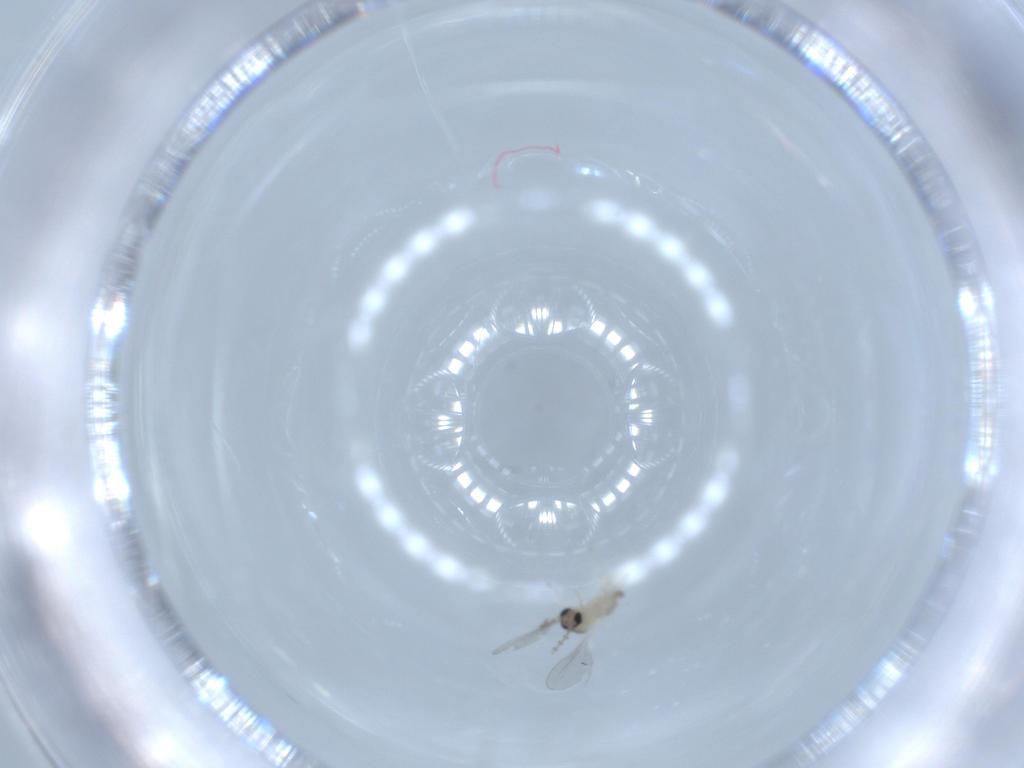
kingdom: Animalia
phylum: Arthropoda
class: Insecta
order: Diptera
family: Cecidomyiidae
